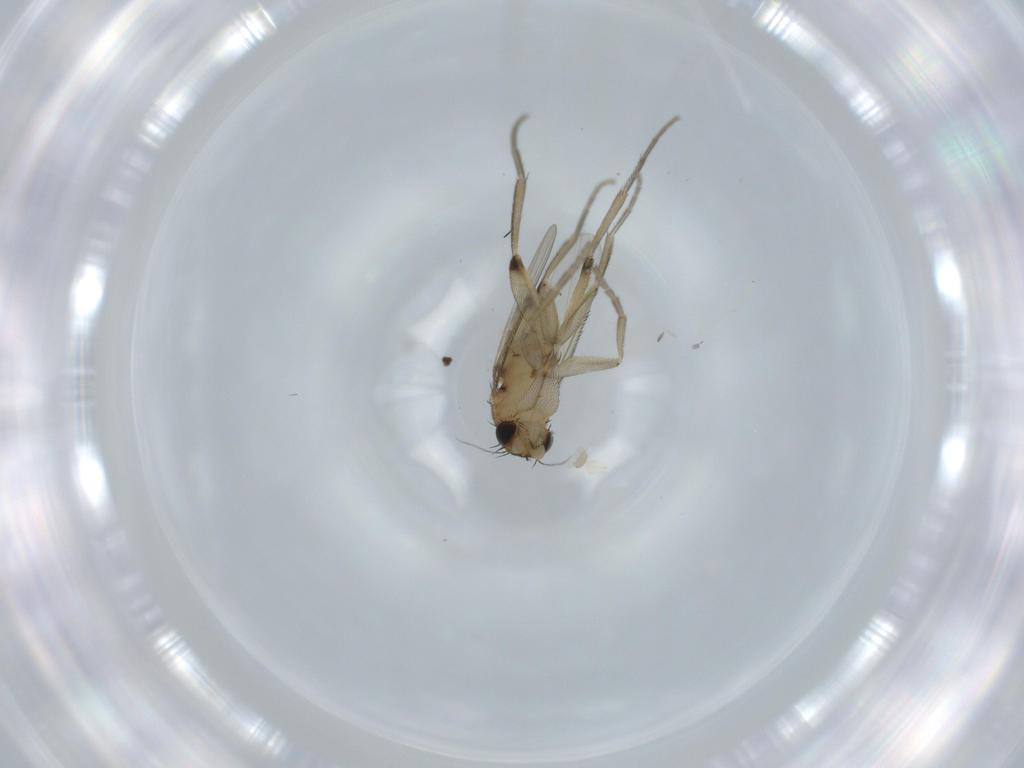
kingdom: Animalia
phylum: Arthropoda
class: Insecta
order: Diptera
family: Phoridae
